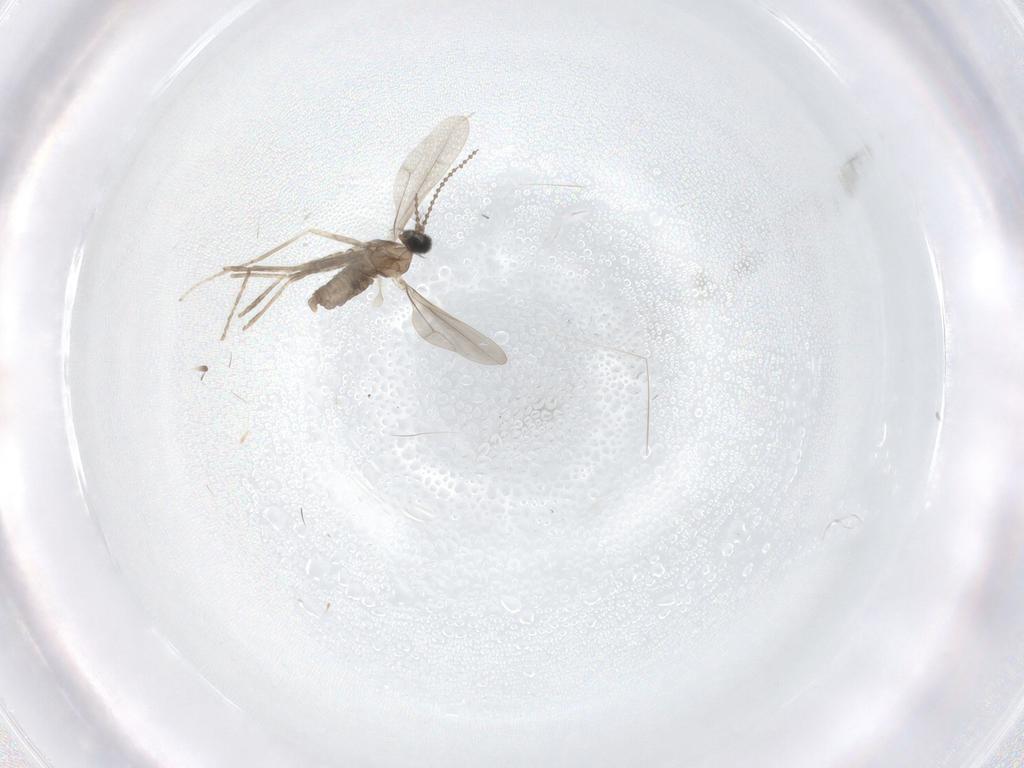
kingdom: Animalia
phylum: Arthropoda
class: Insecta
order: Diptera
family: Cecidomyiidae
